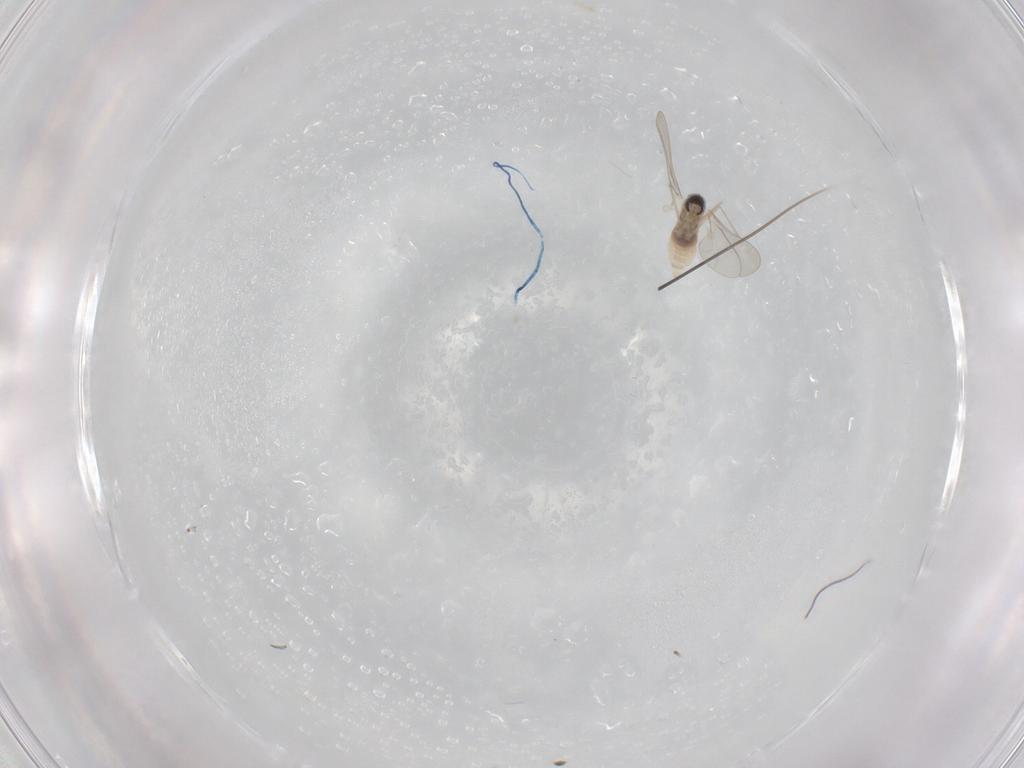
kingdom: Animalia
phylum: Arthropoda
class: Insecta
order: Diptera
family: Cecidomyiidae
